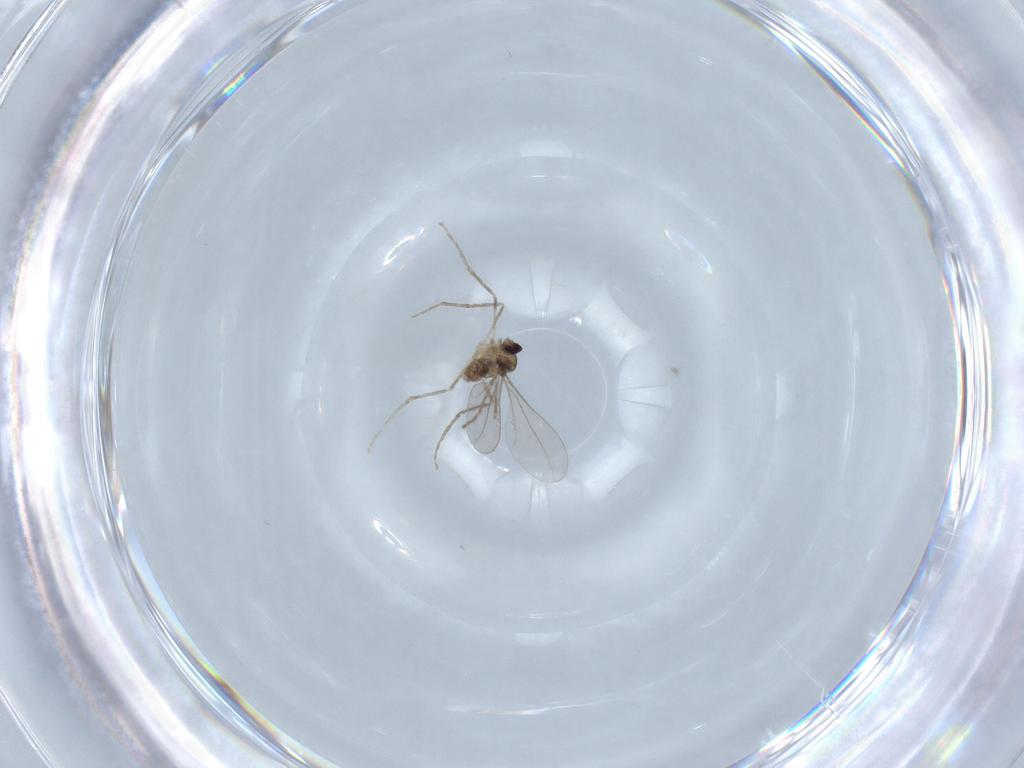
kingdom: Animalia
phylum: Arthropoda
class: Insecta
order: Diptera
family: Cecidomyiidae
